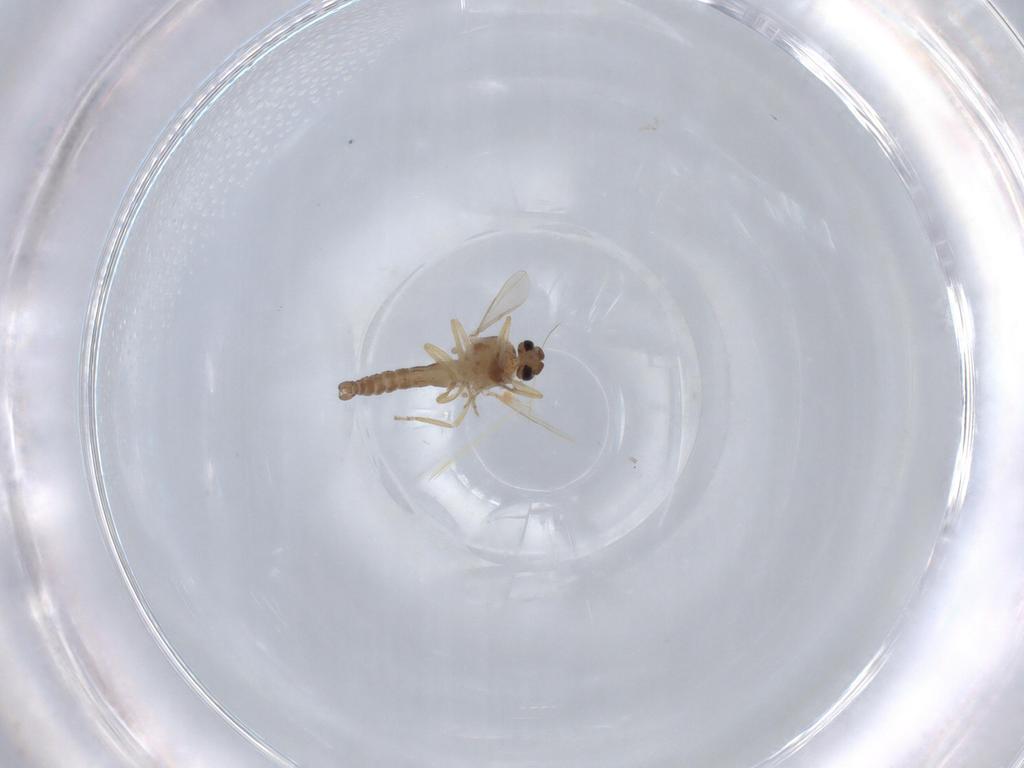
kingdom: Animalia
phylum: Arthropoda
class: Insecta
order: Diptera
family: Ceratopogonidae
